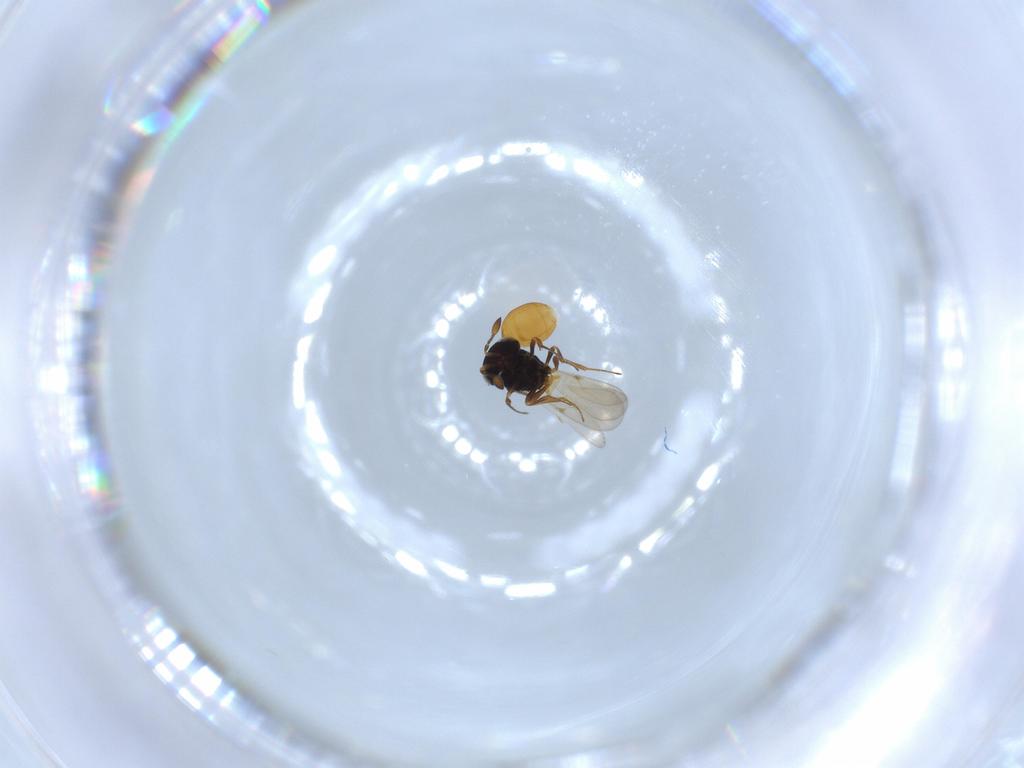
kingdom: Animalia
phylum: Arthropoda
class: Insecta
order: Hymenoptera
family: Scelionidae
